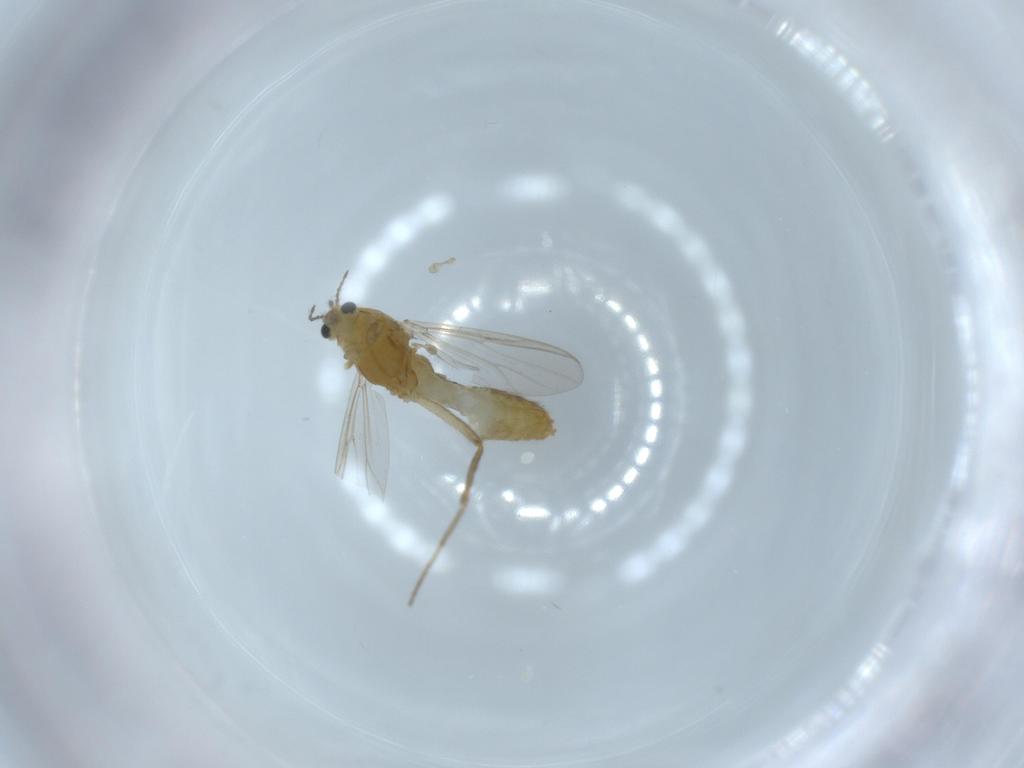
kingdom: Animalia
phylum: Arthropoda
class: Insecta
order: Diptera
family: Chironomidae
